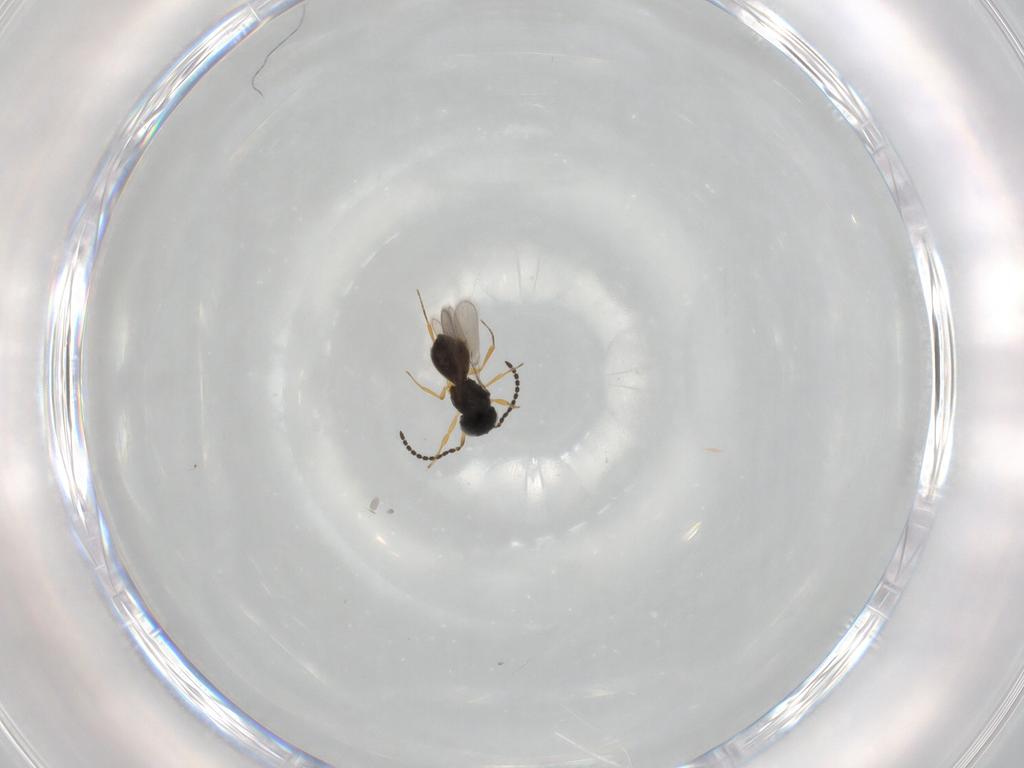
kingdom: Animalia
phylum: Arthropoda
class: Insecta
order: Hymenoptera
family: Scelionidae
